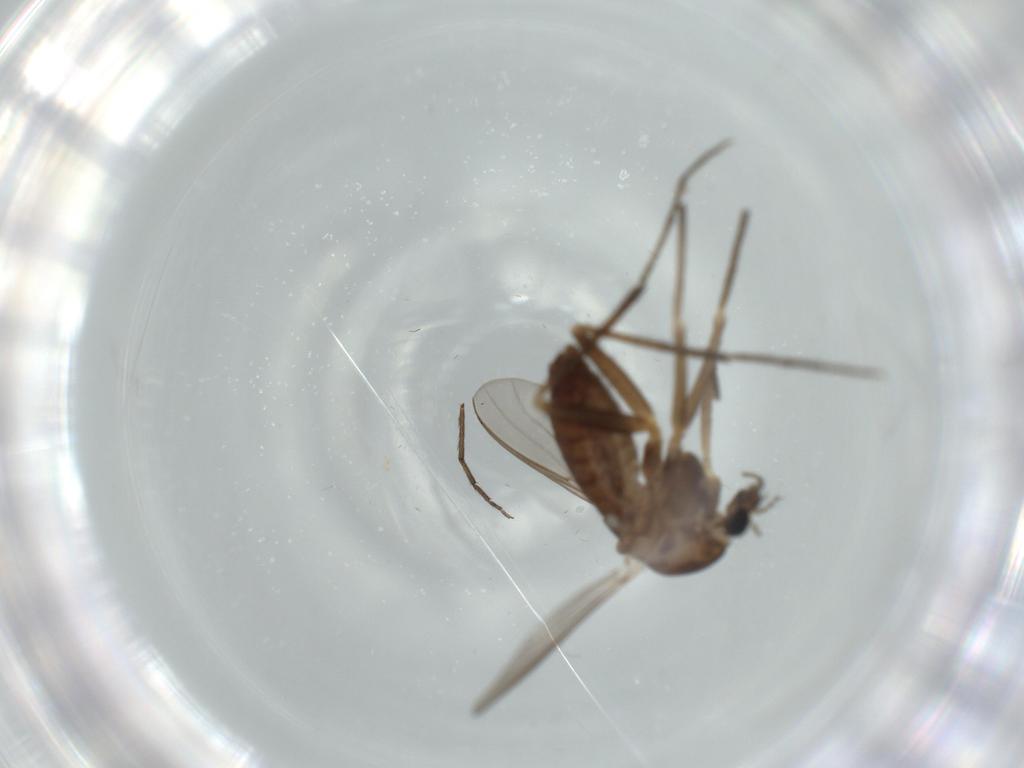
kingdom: Animalia
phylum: Arthropoda
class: Insecta
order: Diptera
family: Chironomidae
